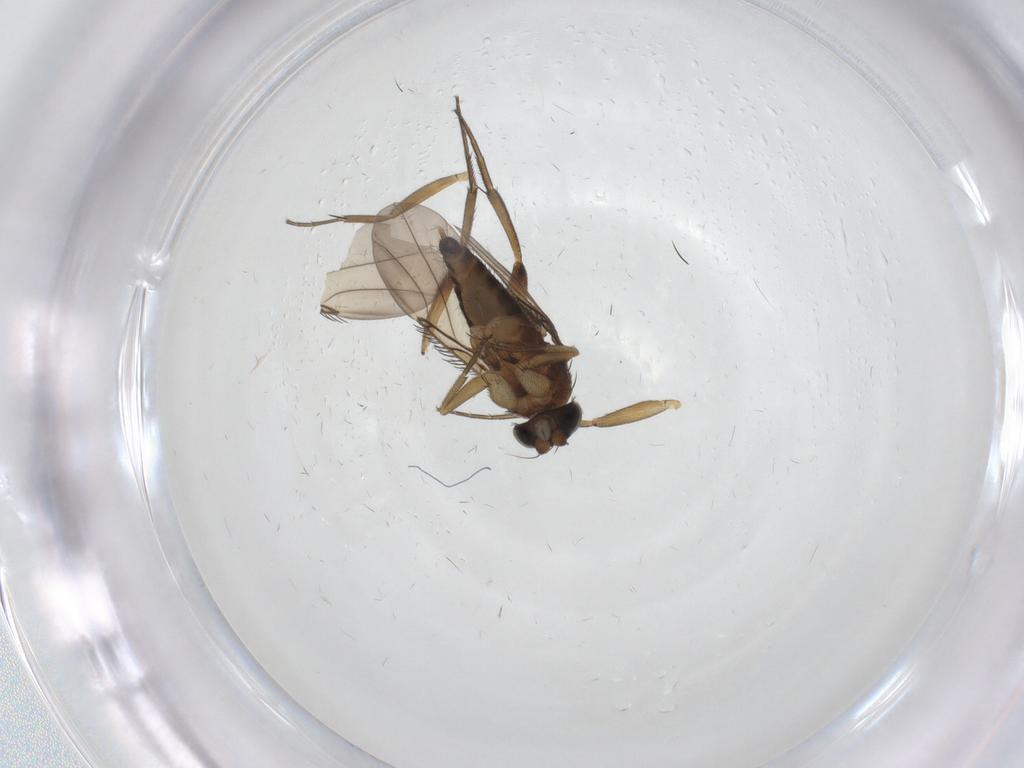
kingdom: Animalia
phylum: Arthropoda
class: Insecta
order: Diptera
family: Phoridae
